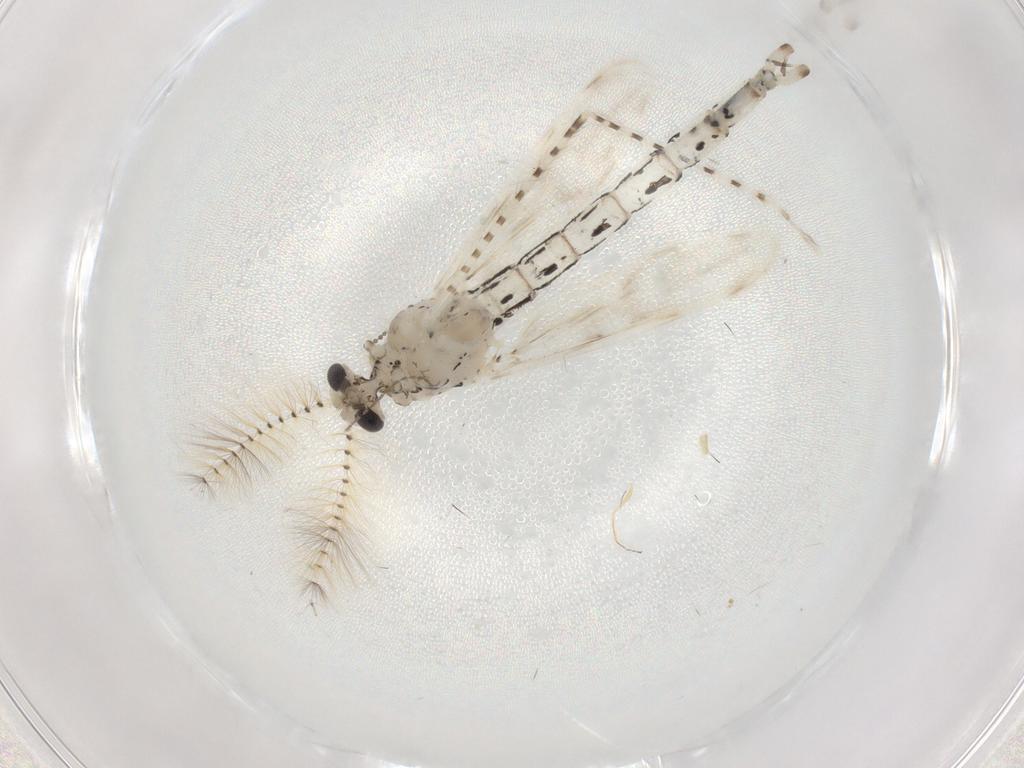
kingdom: Animalia
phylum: Arthropoda
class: Insecta
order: Diptera
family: Chaoboridae
